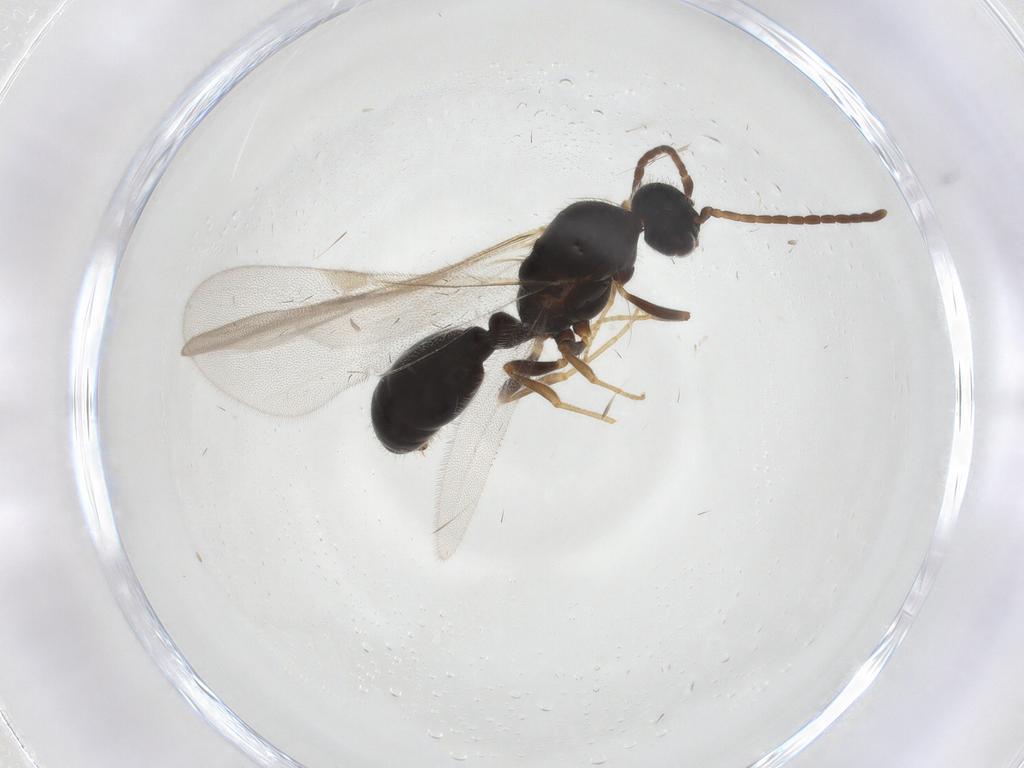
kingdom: Animalia
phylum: Arthropoda
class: Insecta
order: Hymenoptera
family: Formicidae
